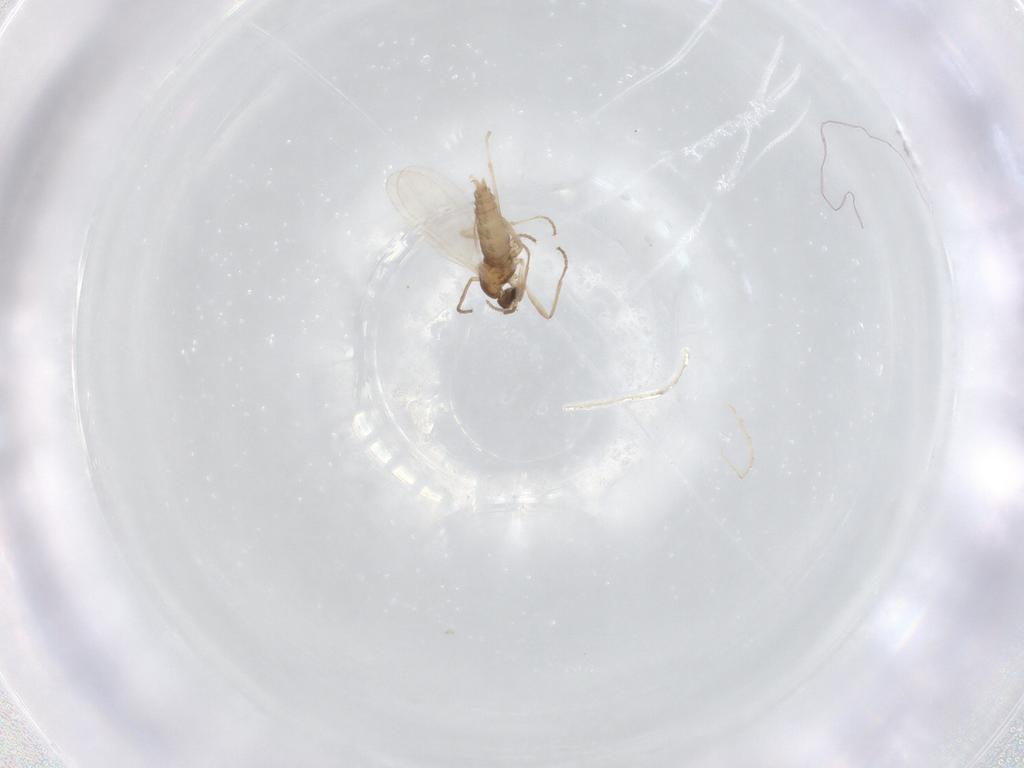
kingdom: Animalia
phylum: Arthropoda
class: Insecta
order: Diptera
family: Cecidomyiidae
